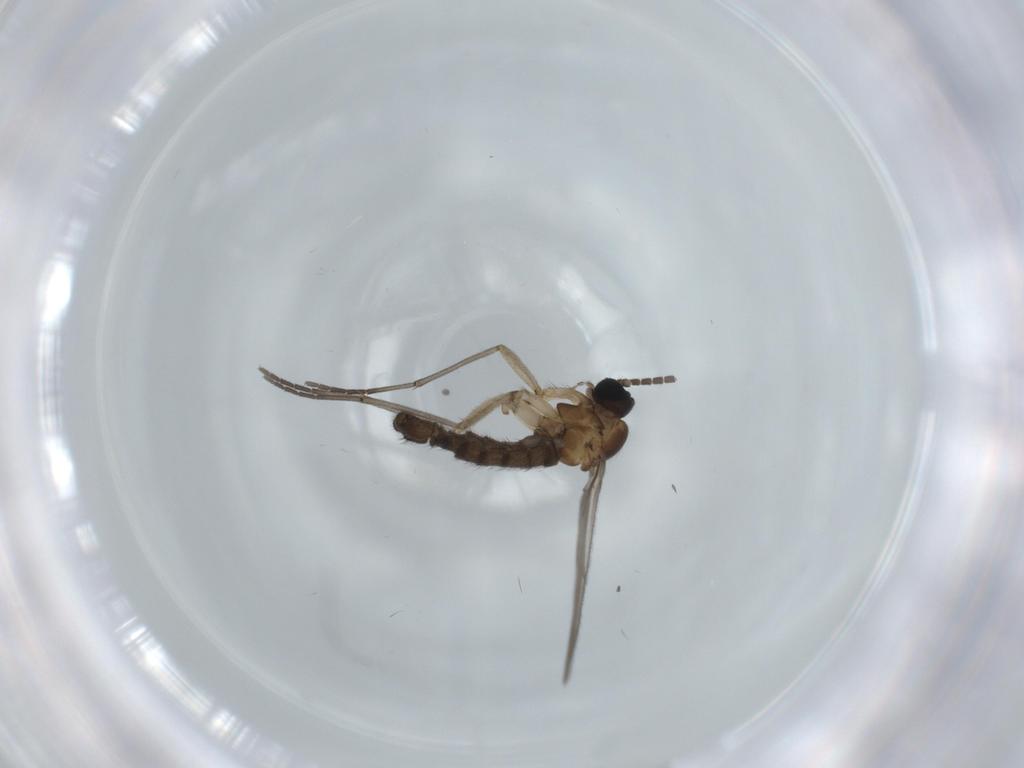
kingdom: Animalia
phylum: Arthropoda
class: Insecta
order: Diptera
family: Sciaridae
